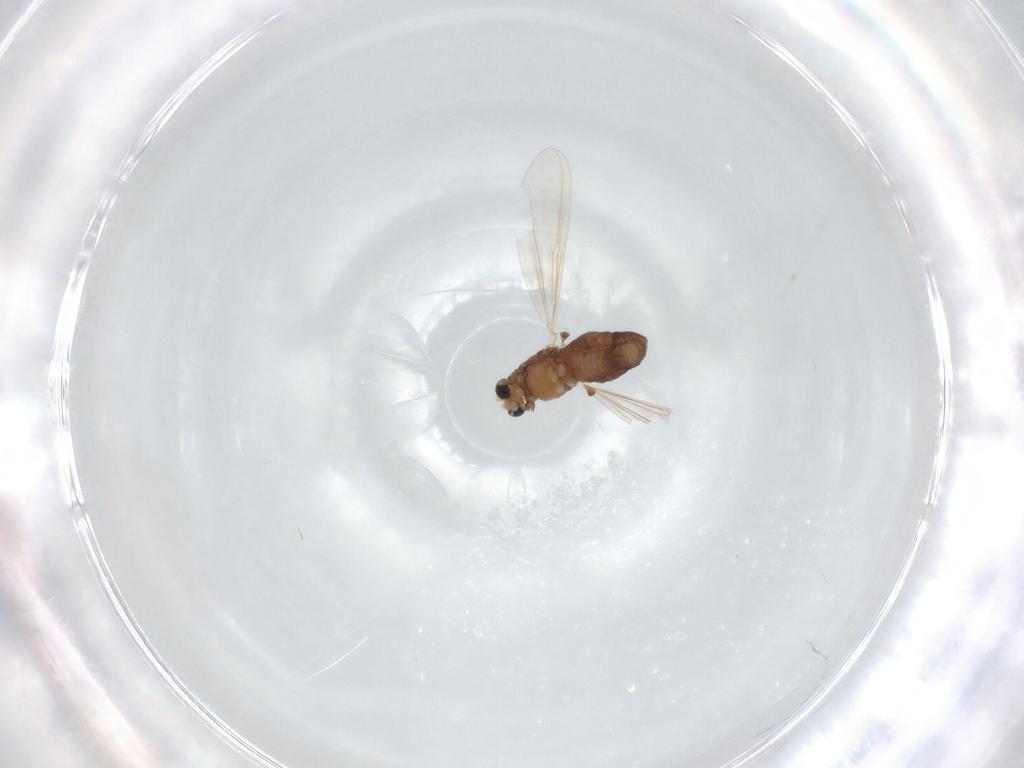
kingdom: Animalia
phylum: Arthropoda
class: Insecta
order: Diptera
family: Chironomidae
